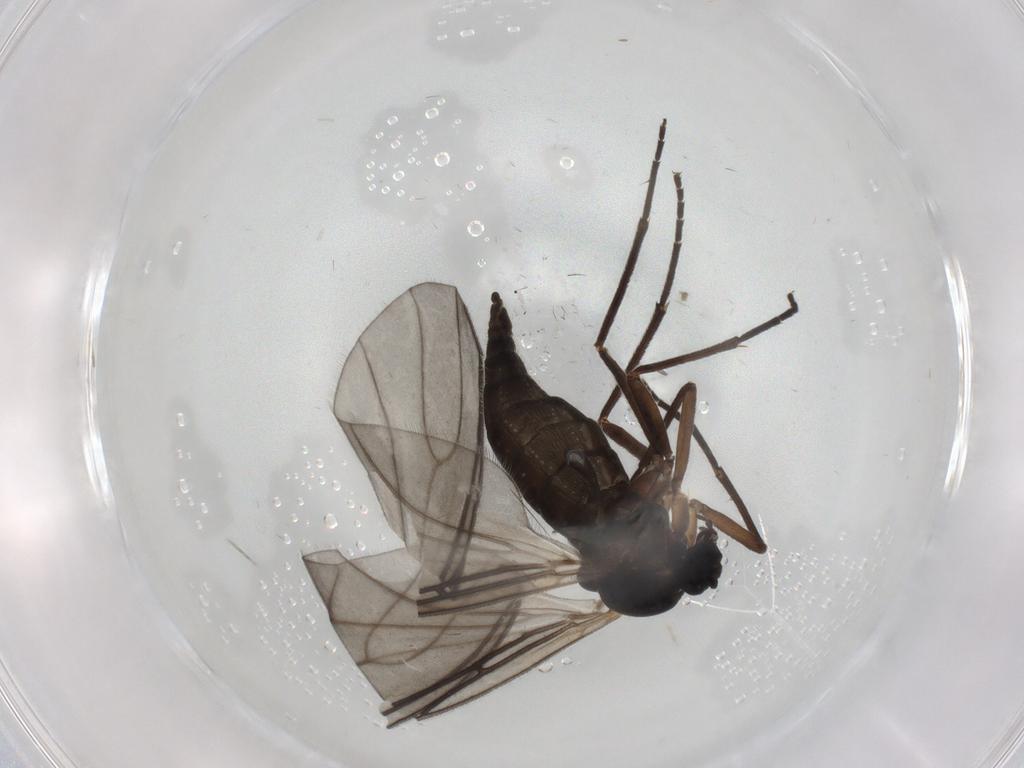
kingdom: Animalia
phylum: Arthropoda
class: Insecta
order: Diptera
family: Sciaridae
